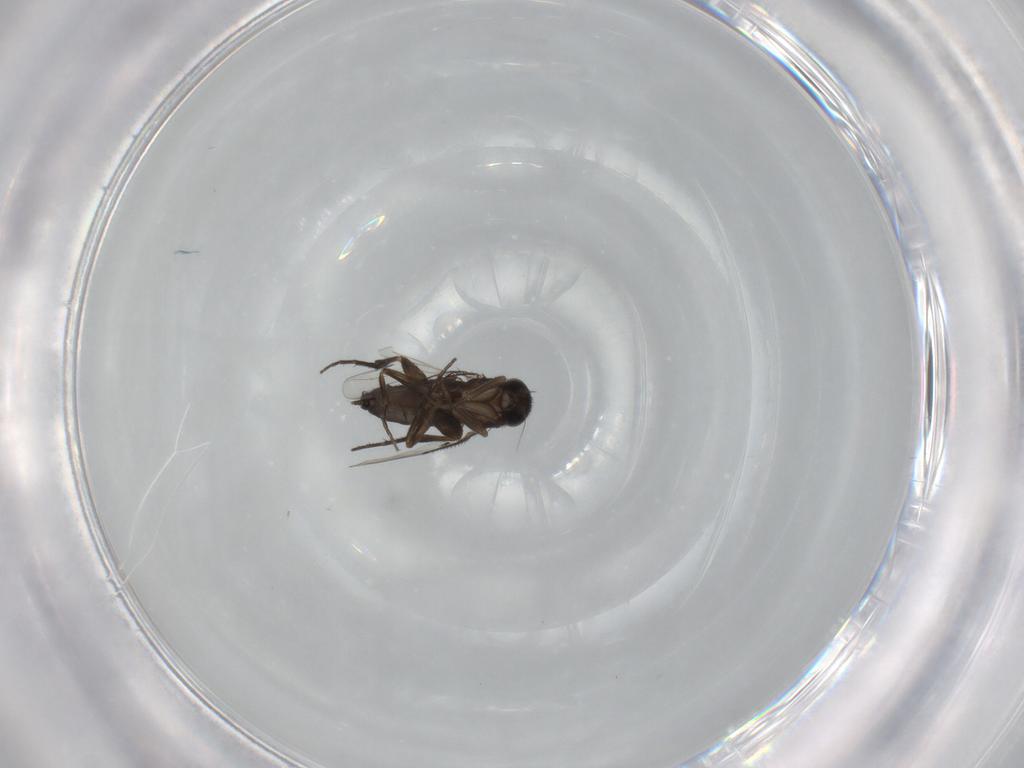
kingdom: Animalia
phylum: Arthropoda
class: Insecta
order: Diptera
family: Phoridae
